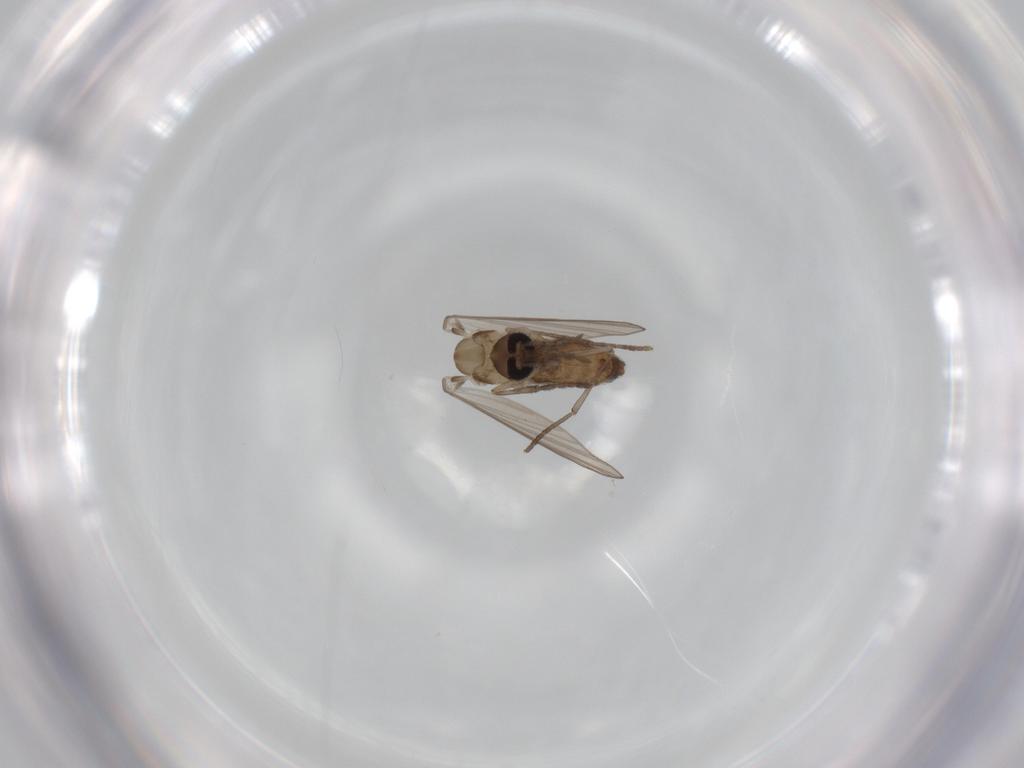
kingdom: Animalia
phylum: Arthropoda
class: Insecta
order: Diptera
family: Psychodidae
